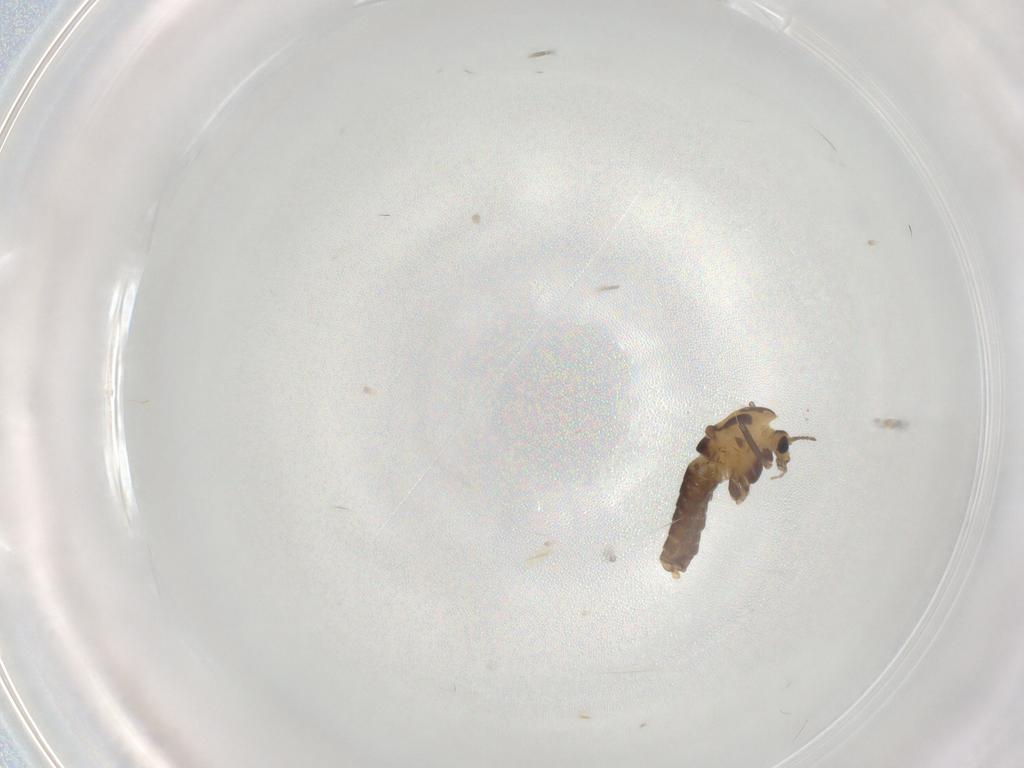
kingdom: Animalia
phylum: Arthropoda
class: Insecta
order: Diptera
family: Chironomidae
